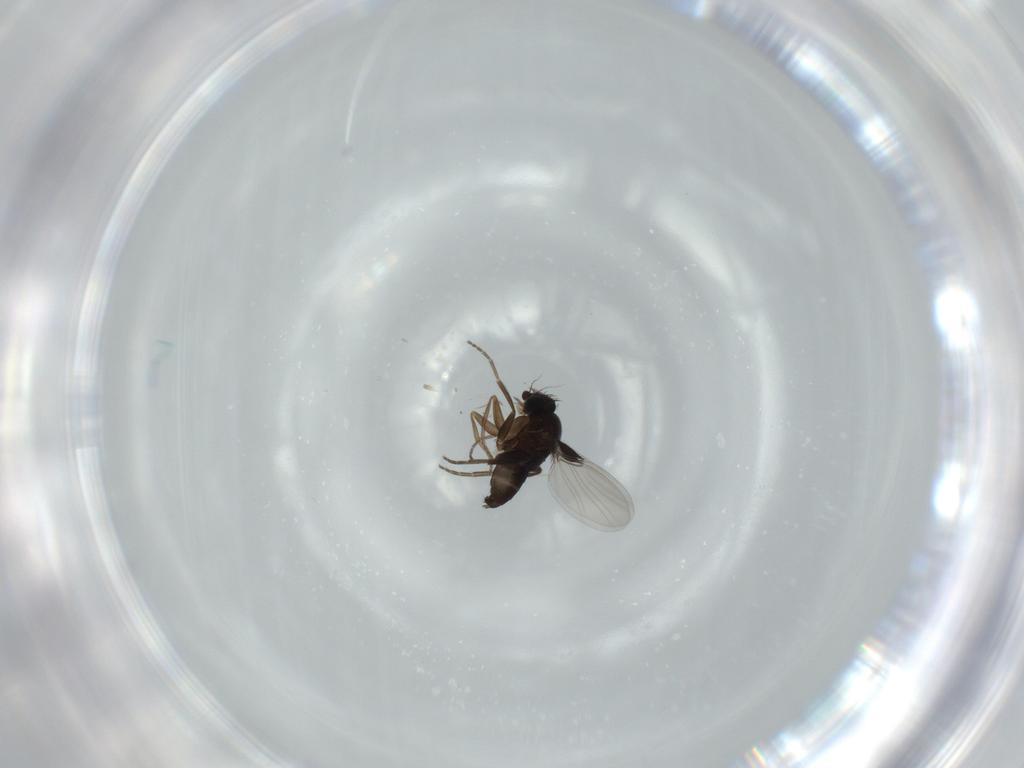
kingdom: Animalia
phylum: Arthropoda
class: Insecta
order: Diptera
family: Phoridae
